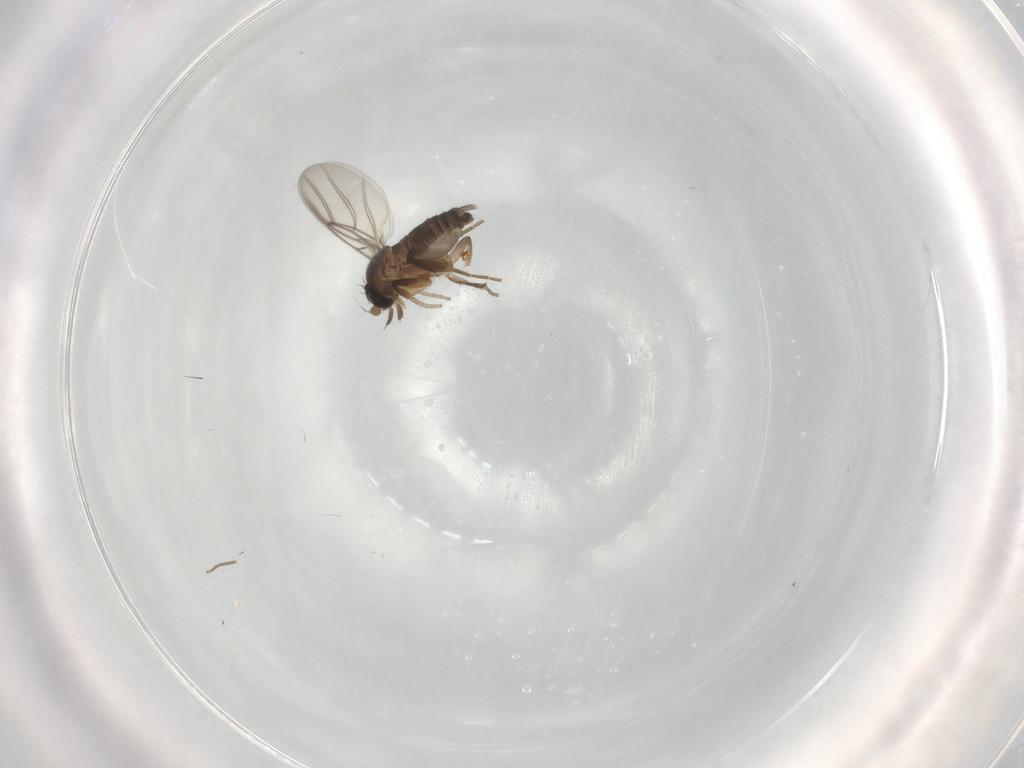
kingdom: Animalia
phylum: Arthropoda
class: Insecta
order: Diptera
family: Phoridae
